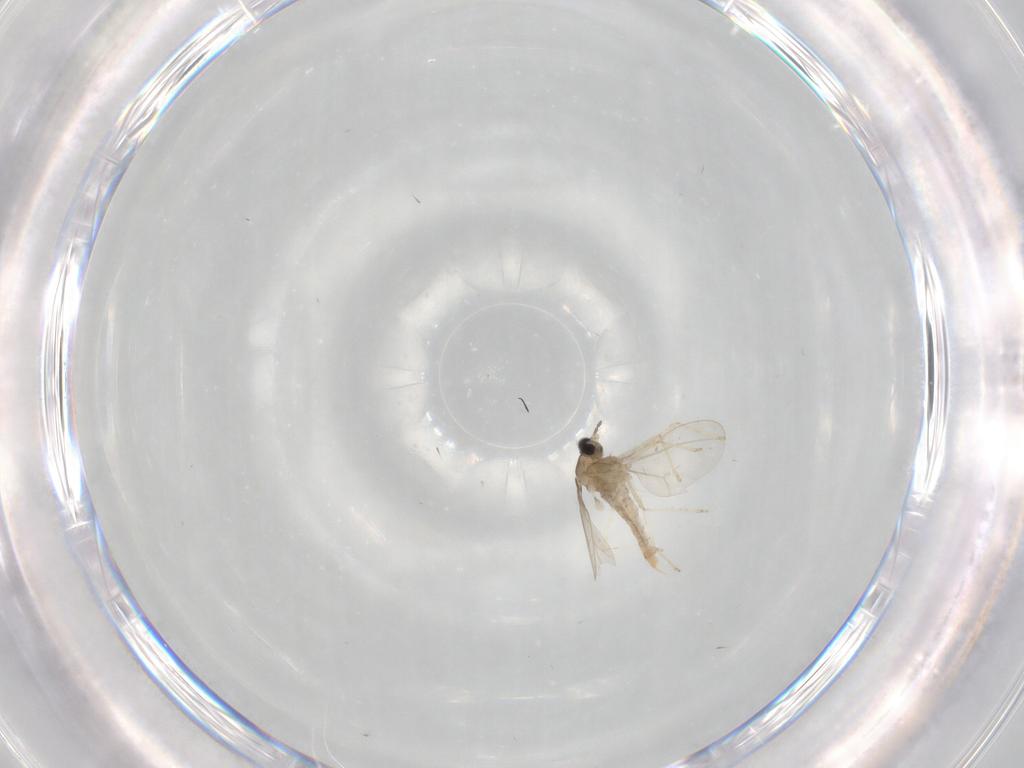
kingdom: Animalia
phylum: Arthropoda
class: Insecta
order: Diptera
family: Cecidomyiidae
